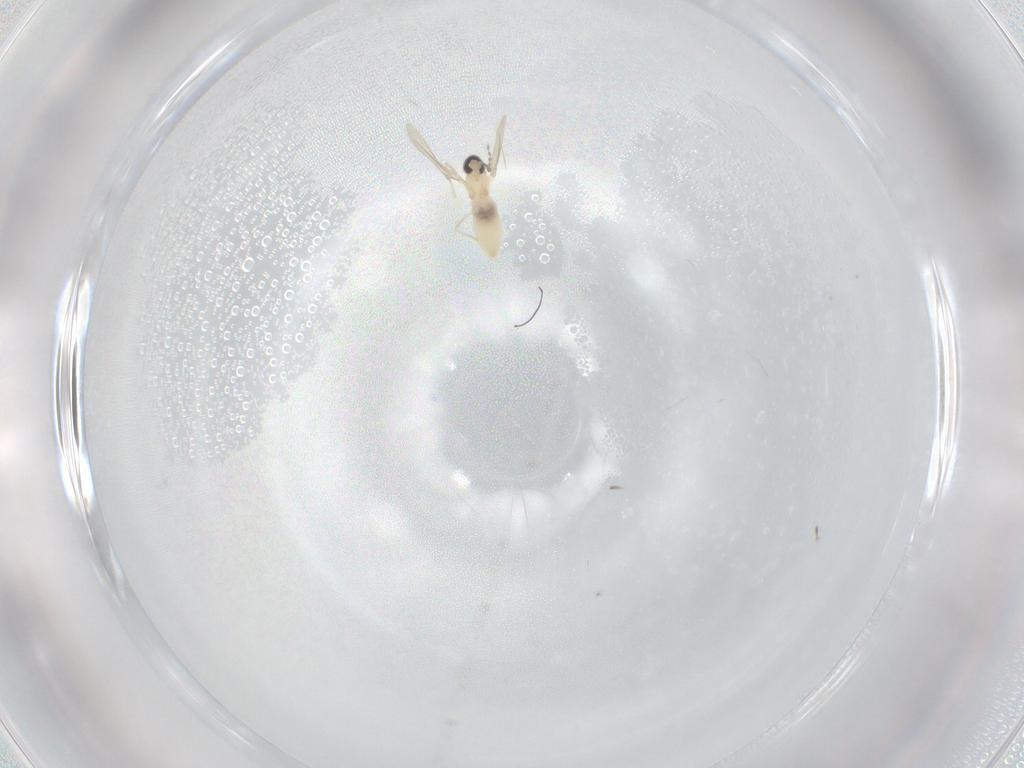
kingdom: Animalia
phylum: Arthropoda
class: Insecta
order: Diptera
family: Cecidomyiidae
